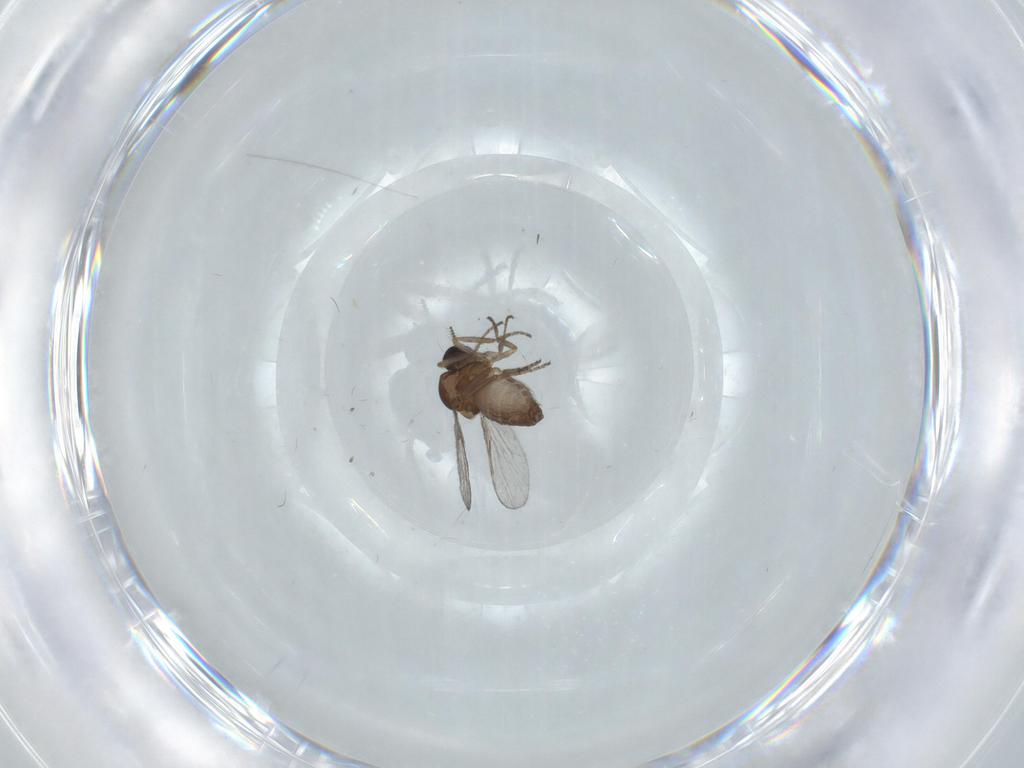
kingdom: Animalia
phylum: Arthropoda
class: Insecta
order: Diptera
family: Chironomidae
